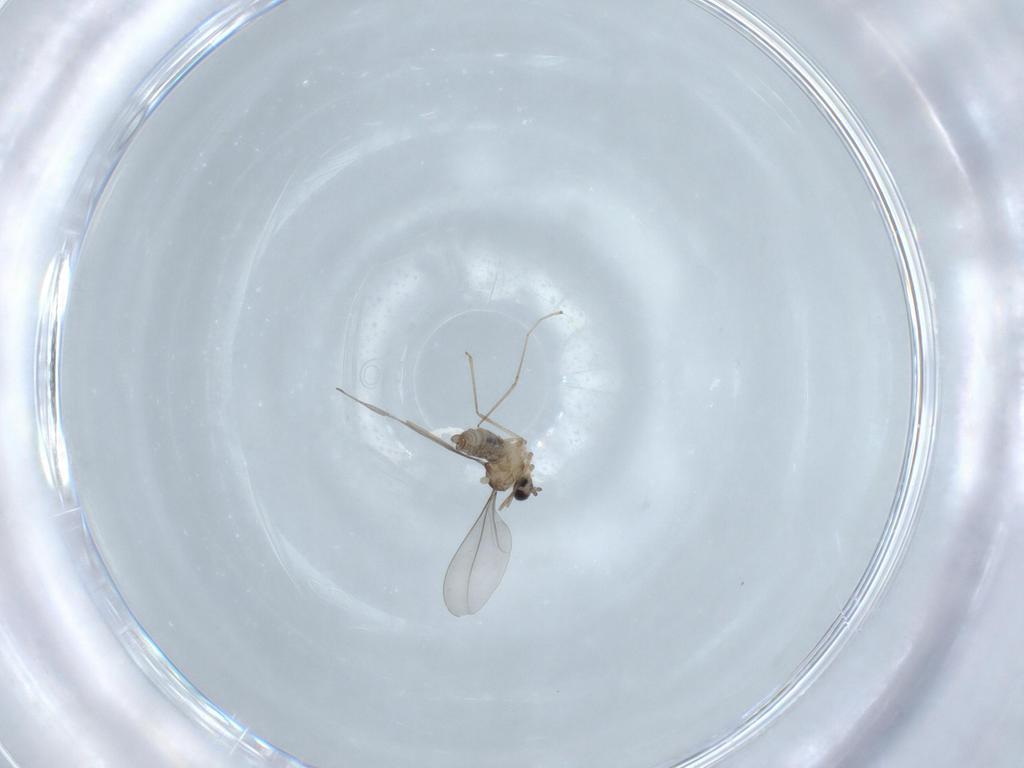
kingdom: Animalia
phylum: Arthropoda
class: Insecta
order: Diptera
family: Cecidomyiidae
